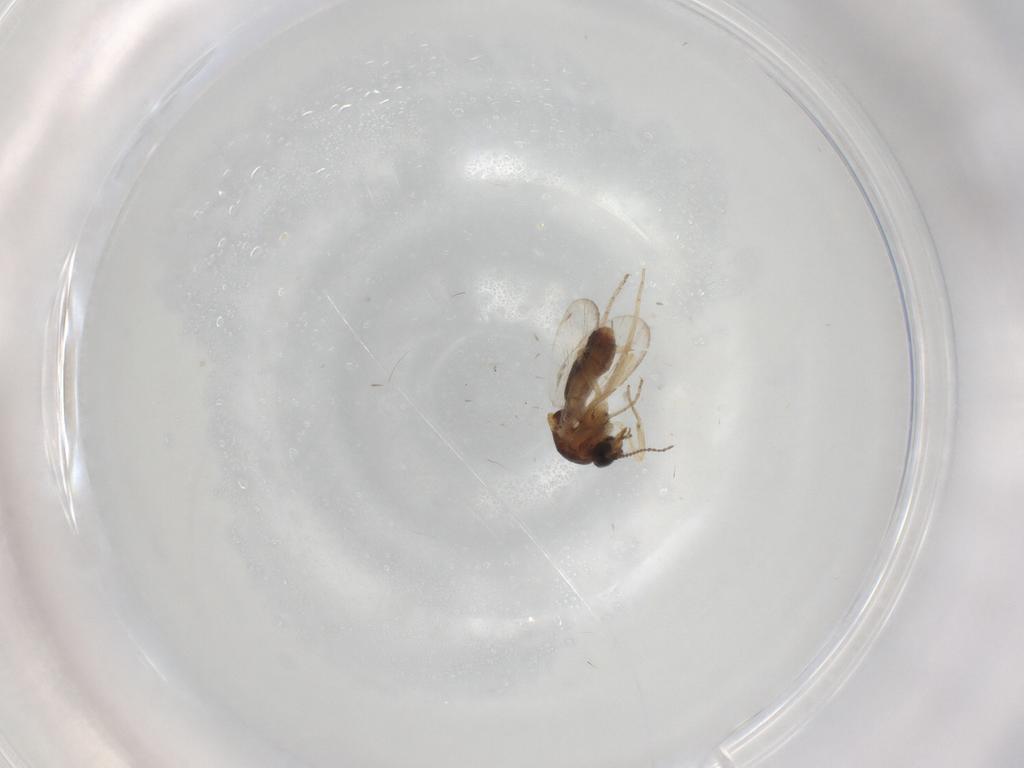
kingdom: Animalia
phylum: Arthropoda
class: Insecta
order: Diptera
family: Ceratopogonidae
